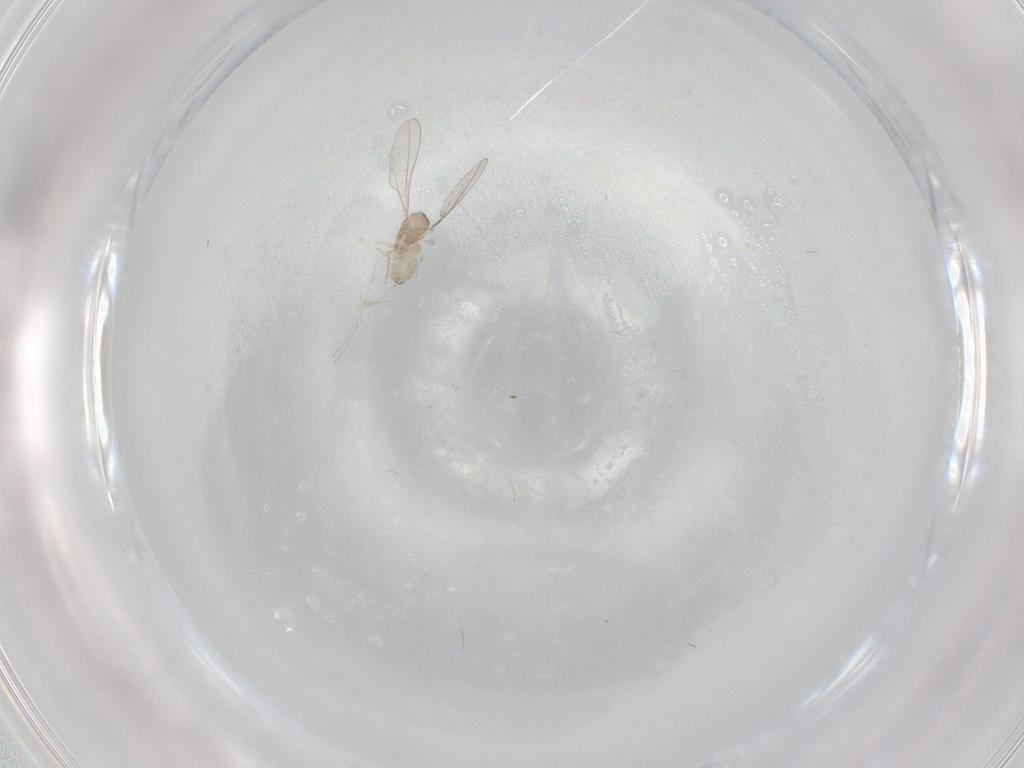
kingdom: Animalia
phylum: Arthropoda
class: Insecta
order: Diptera
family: Cecidomyiidae
